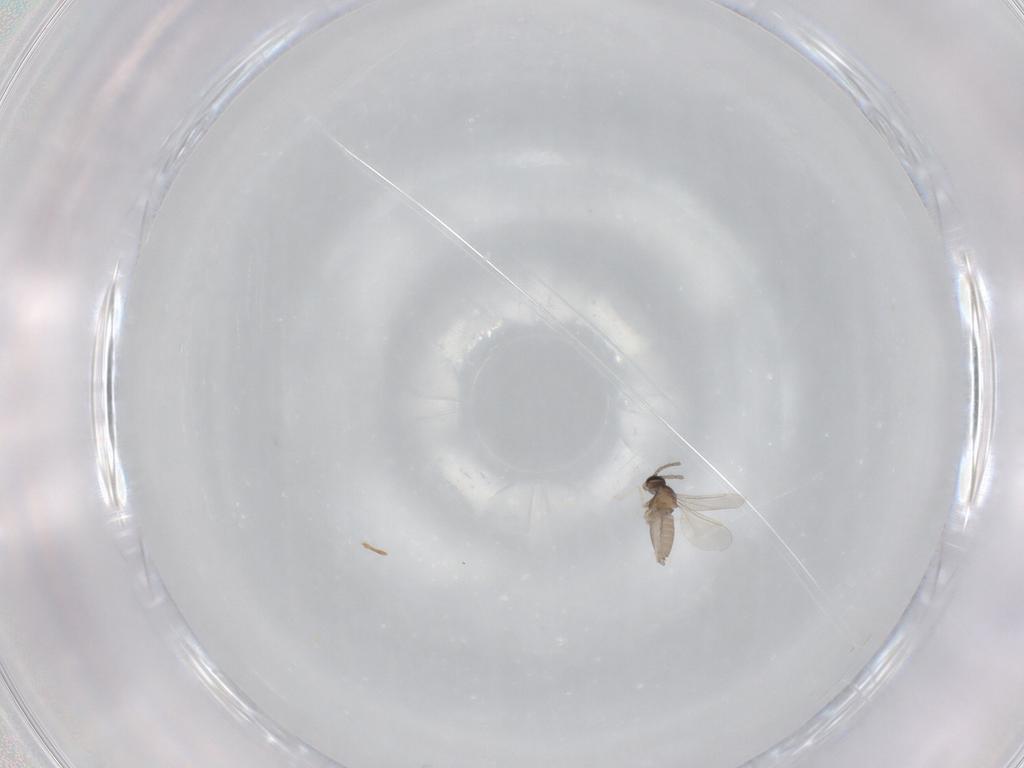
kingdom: Animalia
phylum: Arthropoda
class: Insecta
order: Diptera
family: Cecidomyiidae
